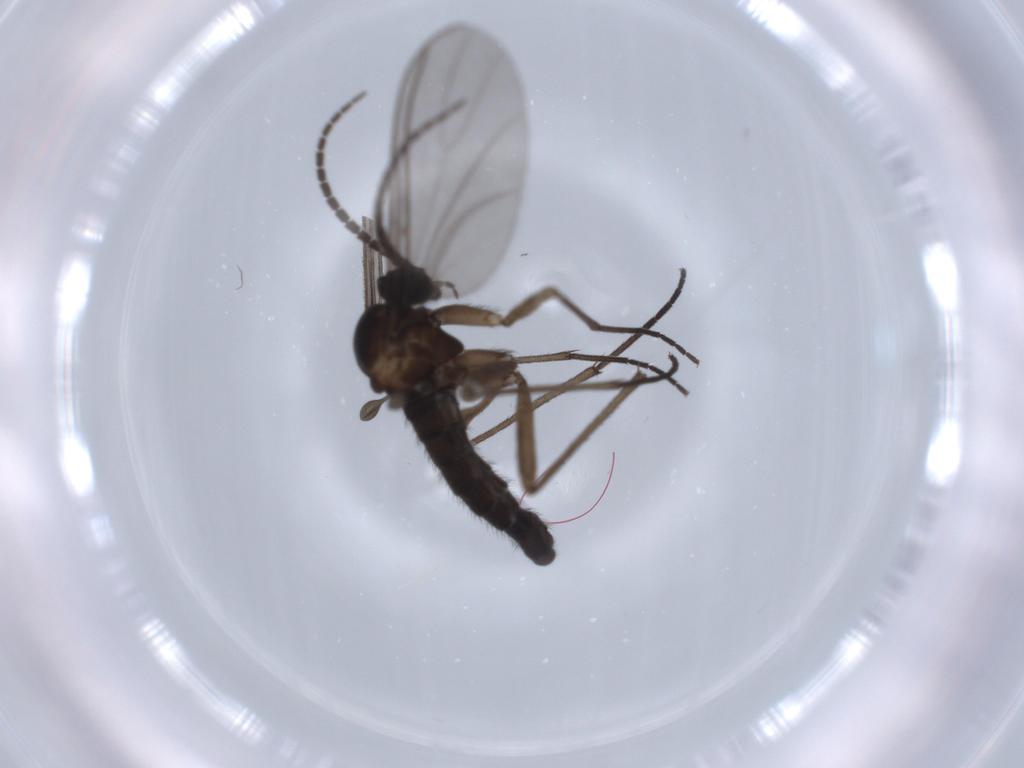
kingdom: Animalia
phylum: Arthropoda
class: Insecta
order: Diptera
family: Sciaridae
